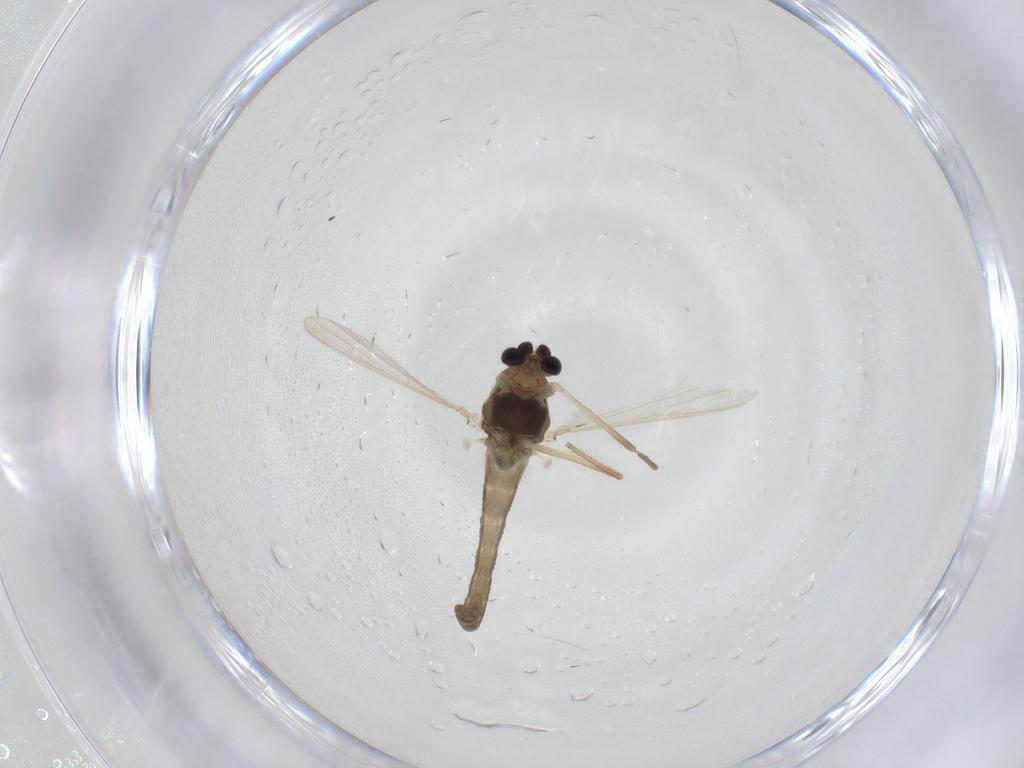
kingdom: Animalia
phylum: Arthropoda
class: Insecta
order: Diptera
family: Chironomidae
